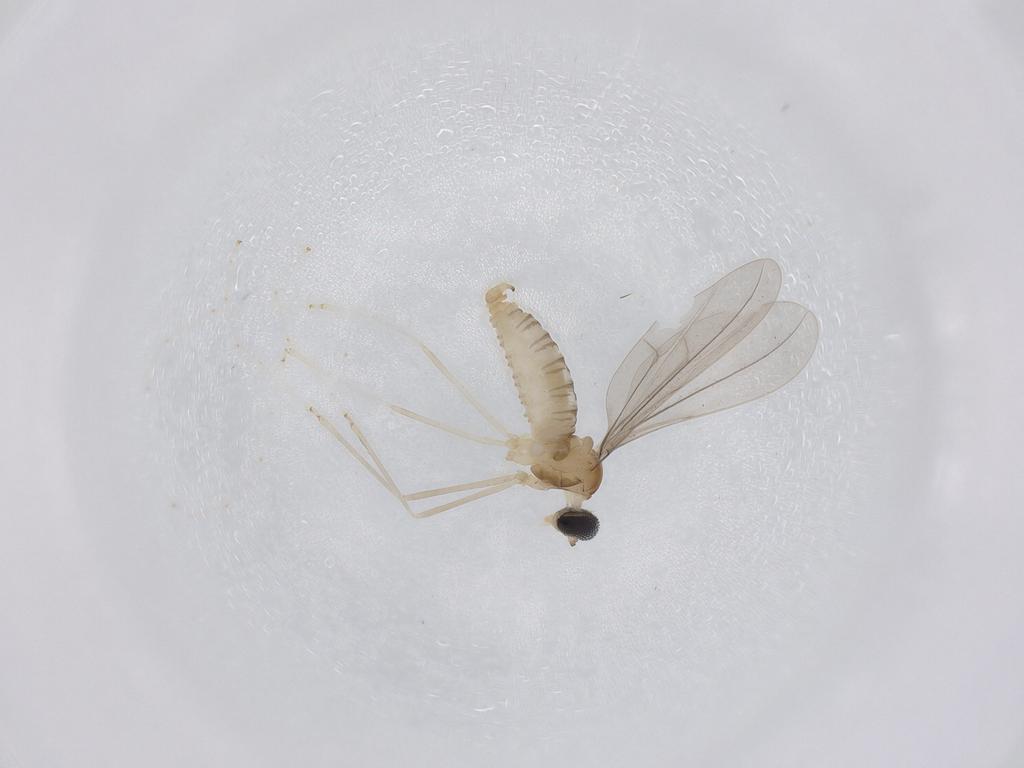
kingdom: Animalia
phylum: Arthropoda
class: Insecta
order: Diptera
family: Cecidomyiidae
